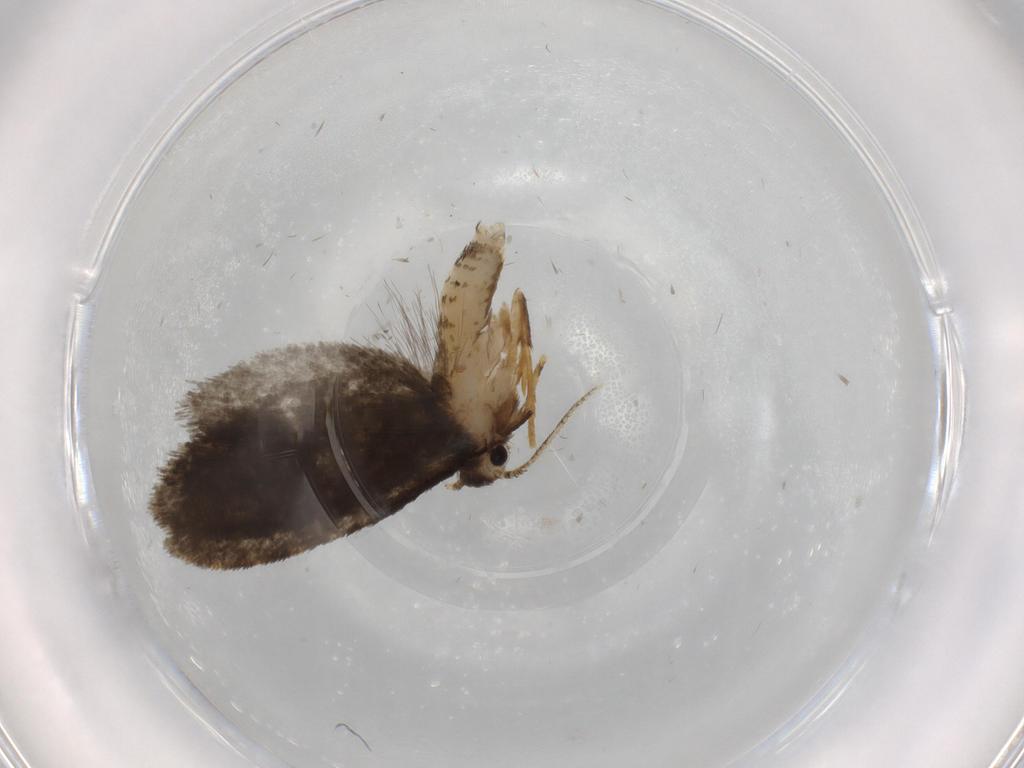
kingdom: Animalia
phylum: Arthropoda
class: Insecta
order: Lepidoptera
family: Psychidae
